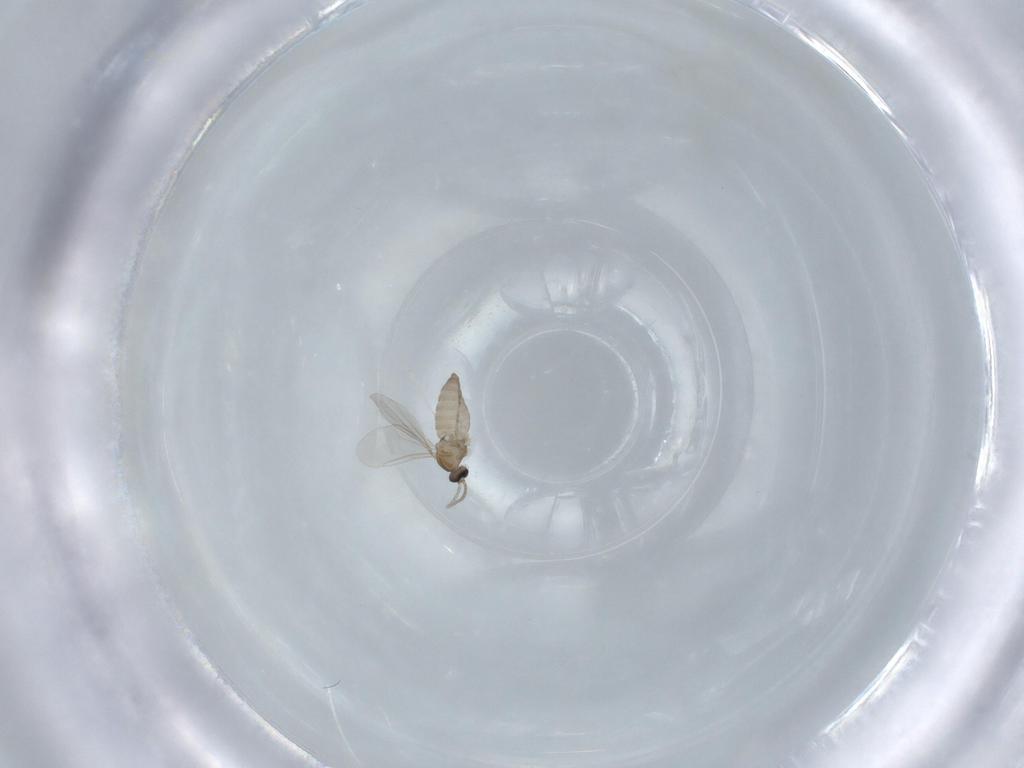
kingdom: Animalia
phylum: Arthropoda
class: Insecta
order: Diptera
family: Cecidomyiidae
